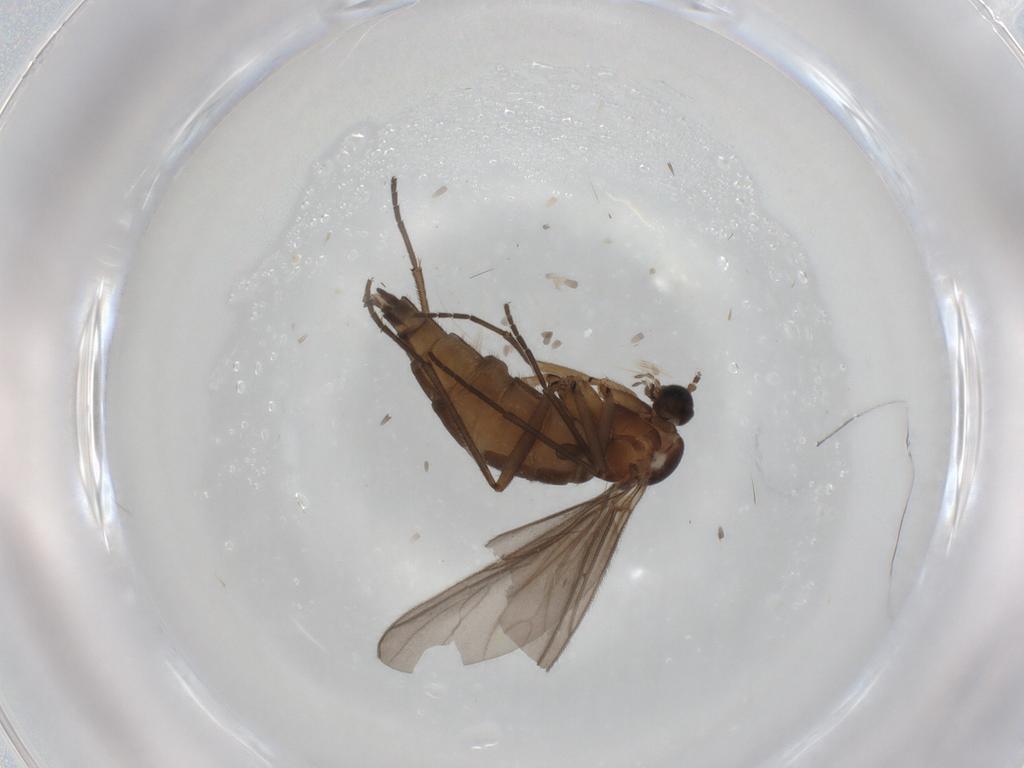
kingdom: Animalia
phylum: Arthropoda
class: Insecta
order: Diptera
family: Sciaridae
